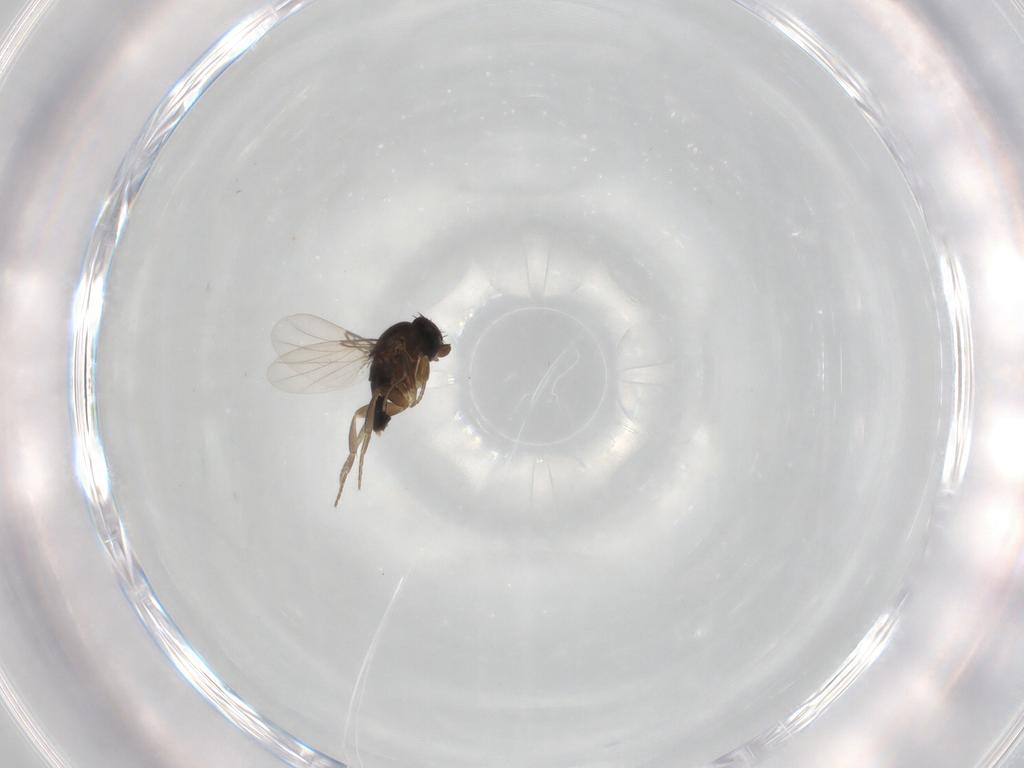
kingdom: Animalia
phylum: Arthropoda
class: Insecta
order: Diptera
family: Phoridae
